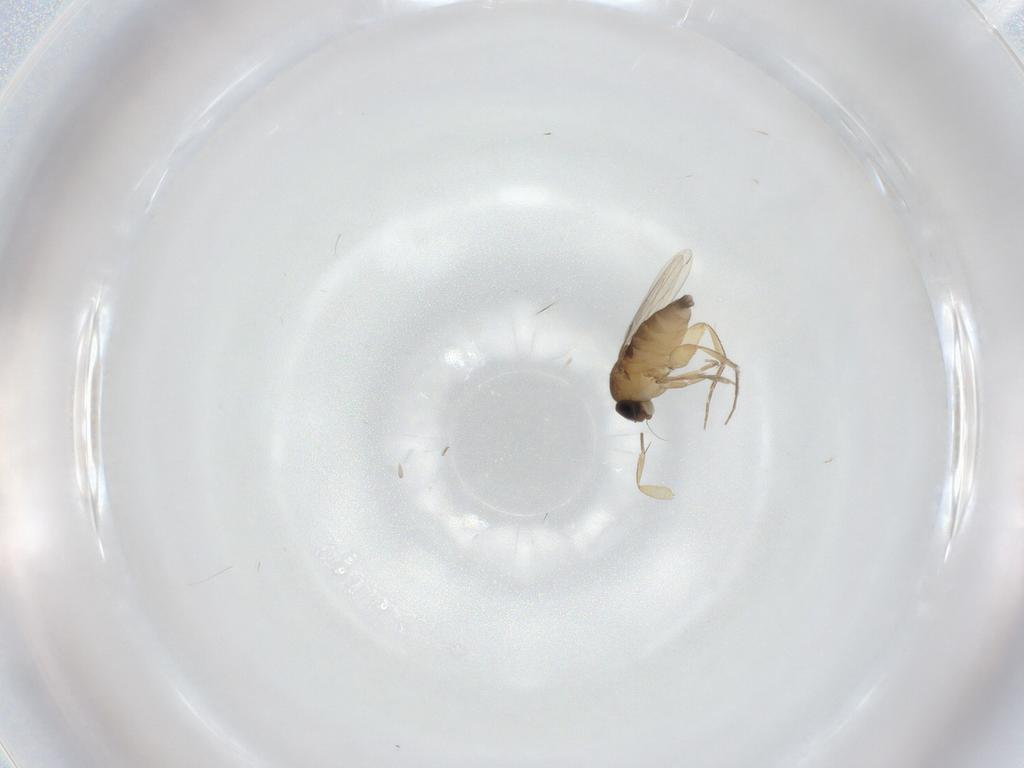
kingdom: Animalia
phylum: Arthropoda
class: Insecta
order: Diptera
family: Phoridae
